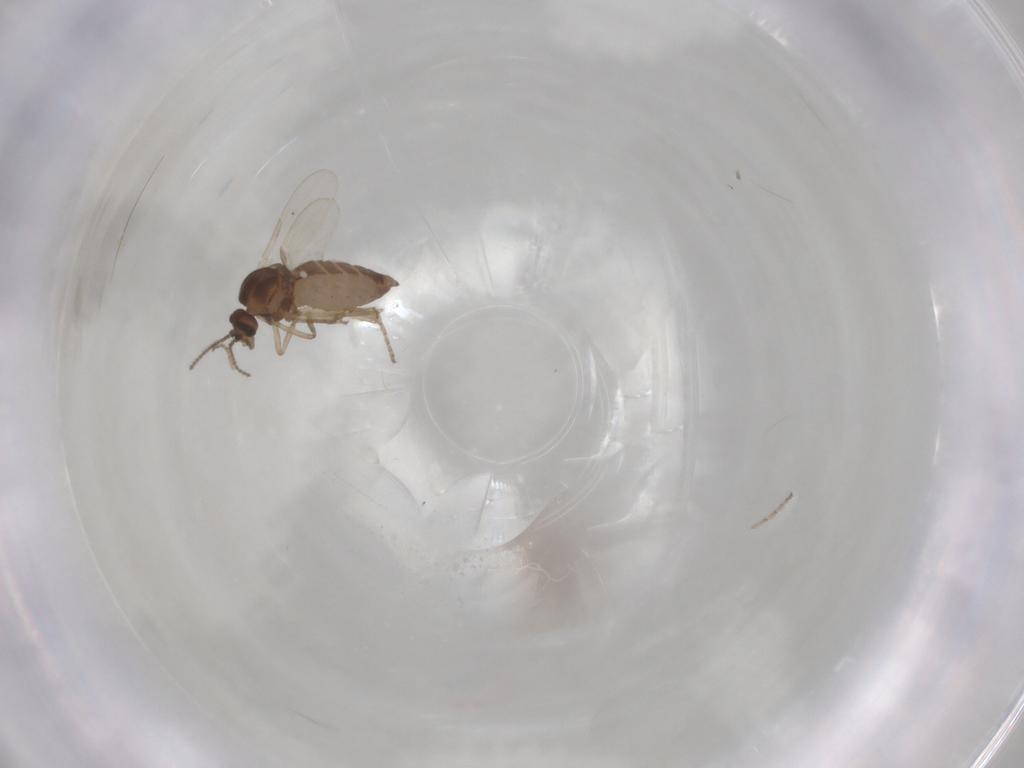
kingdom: Animalia
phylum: Arthropoda
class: Insecta
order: Diptera
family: Ceratopogonidae
